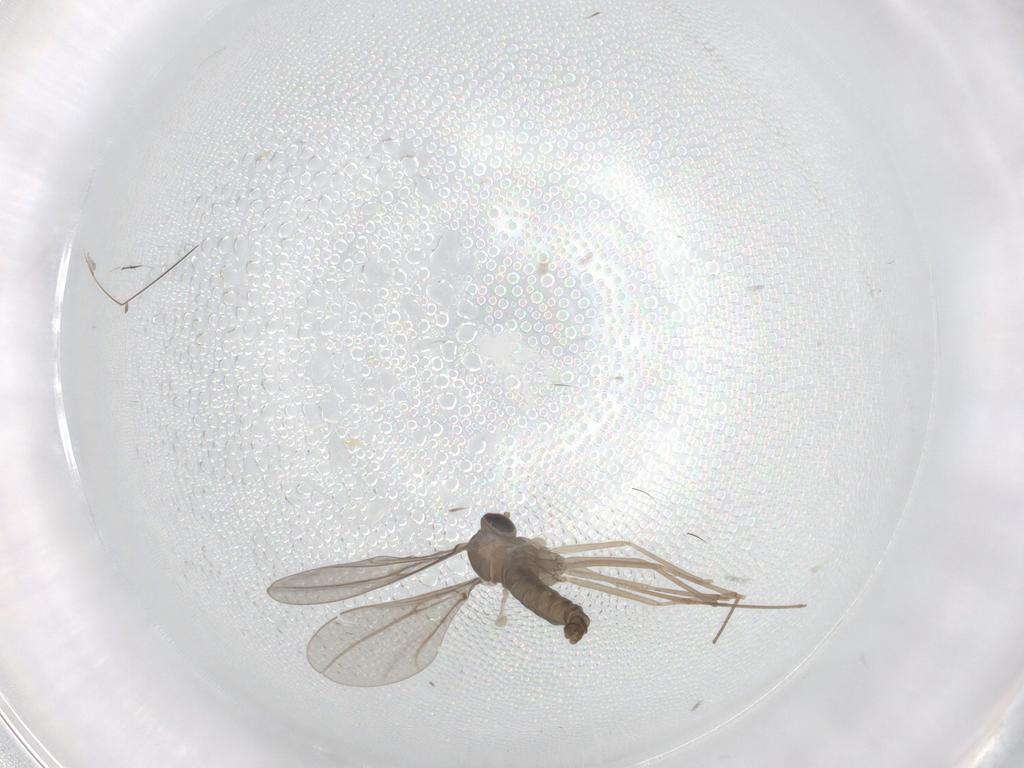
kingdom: Animalia
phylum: Arthropoda
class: Insecta
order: Diptera
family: Cecidomyiidae
